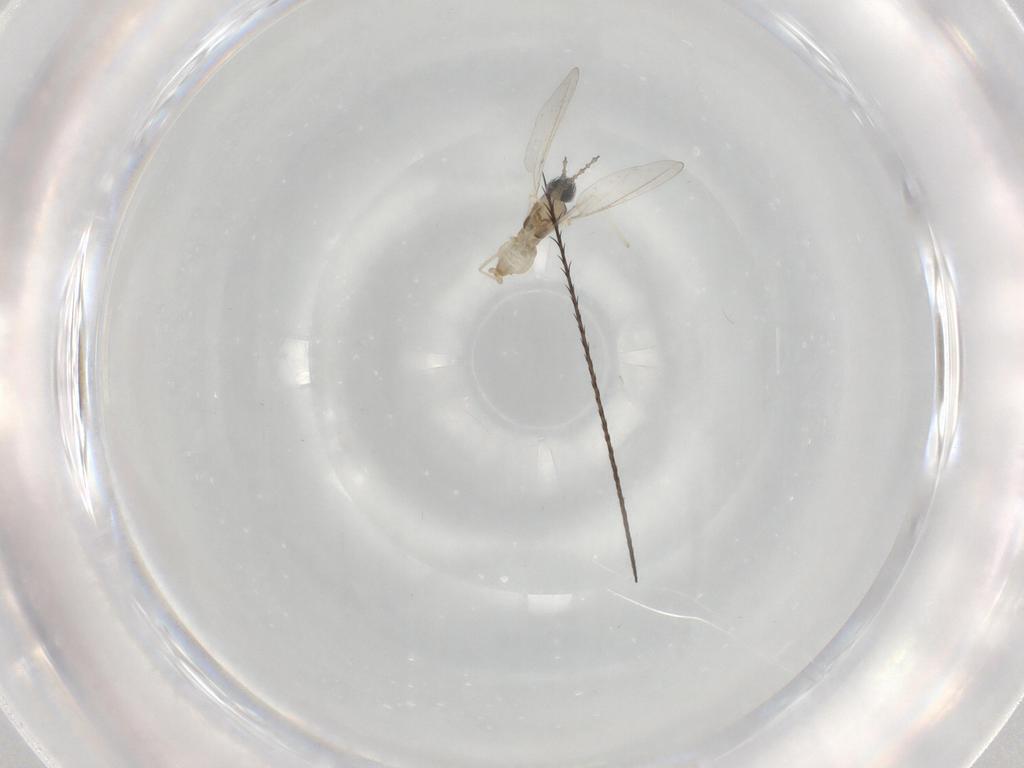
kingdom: Animalia
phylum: Arthropoda
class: Insecta
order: Diptera
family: Cecidomyiidae
